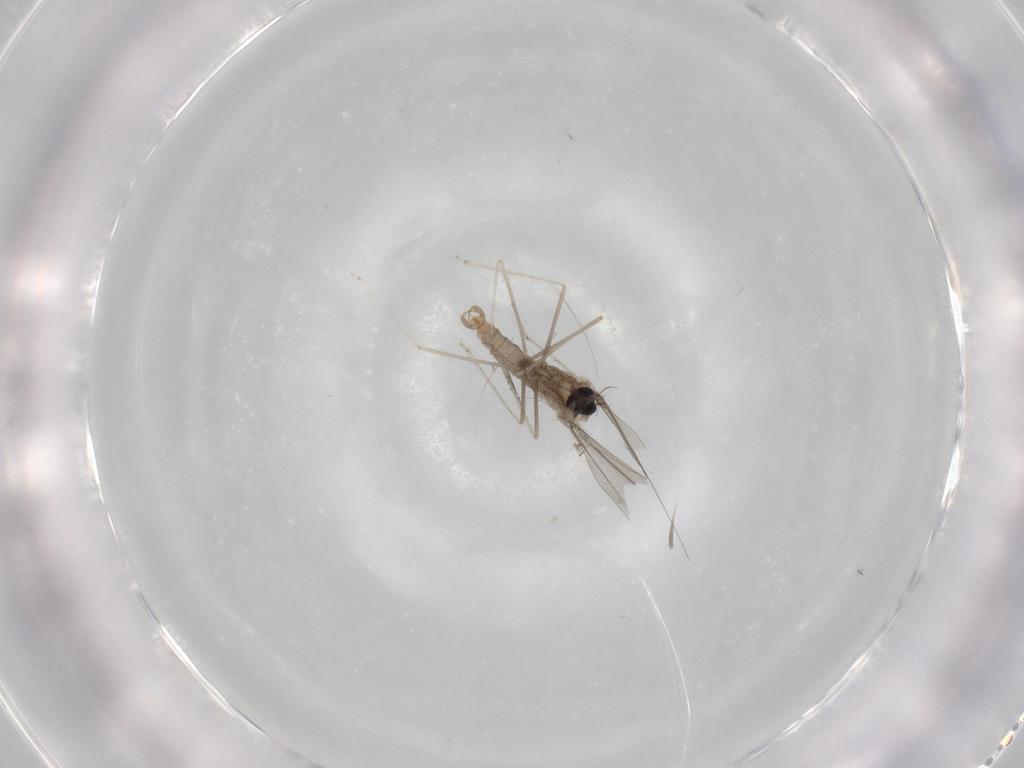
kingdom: Animalia
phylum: Arthropoda
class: Insecta
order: Diptera
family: Cecidomyiidae
